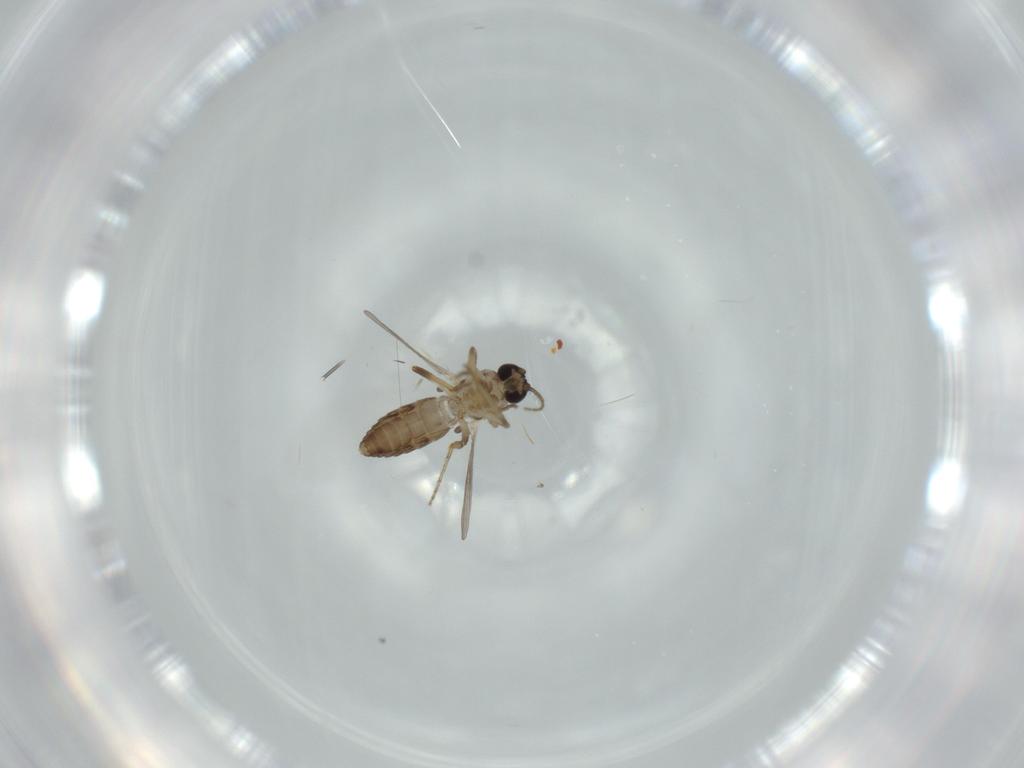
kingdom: Animalia
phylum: Arthropoda
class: Insecta
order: Diptera
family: Ceratopogonidae
